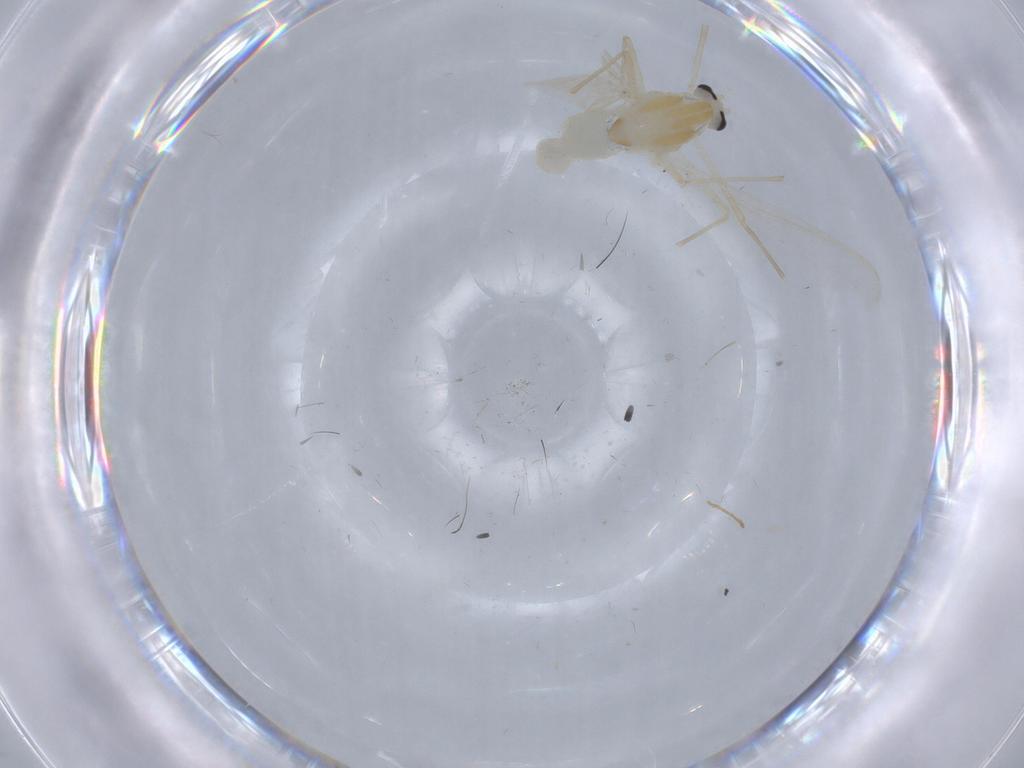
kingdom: Animalia
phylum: Arthropoda
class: Insecta
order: Diptera
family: Chironomidae
